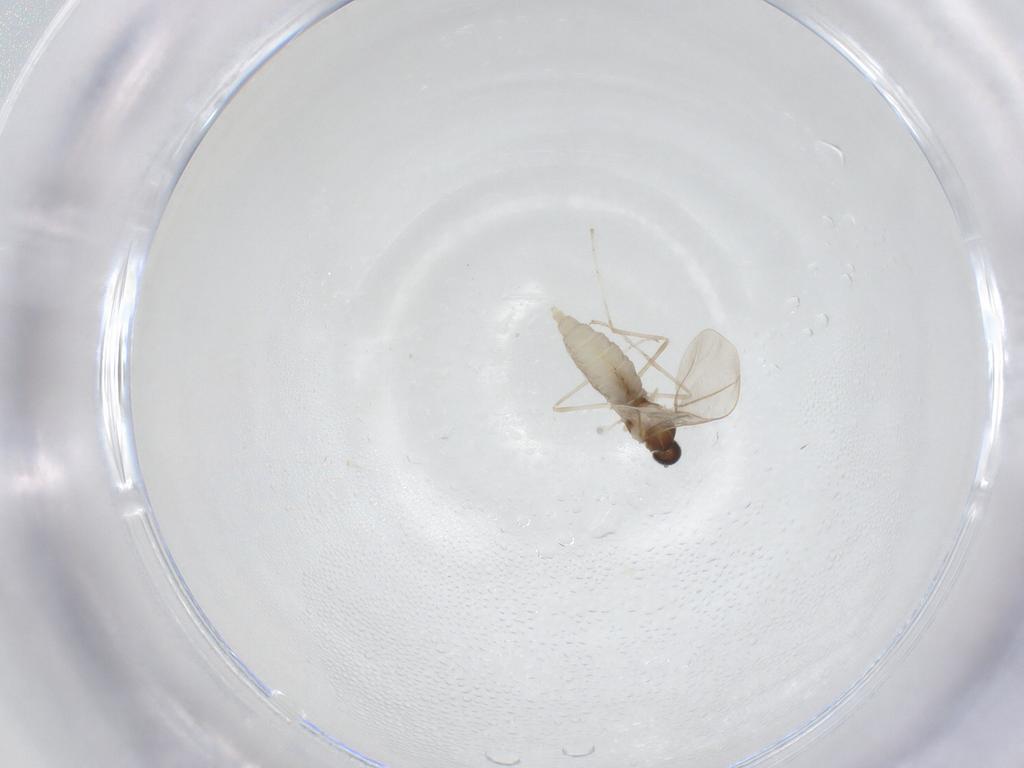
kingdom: Animalia
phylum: Arthropoda
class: Insecta
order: Diptera
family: Cecidomyiidae
